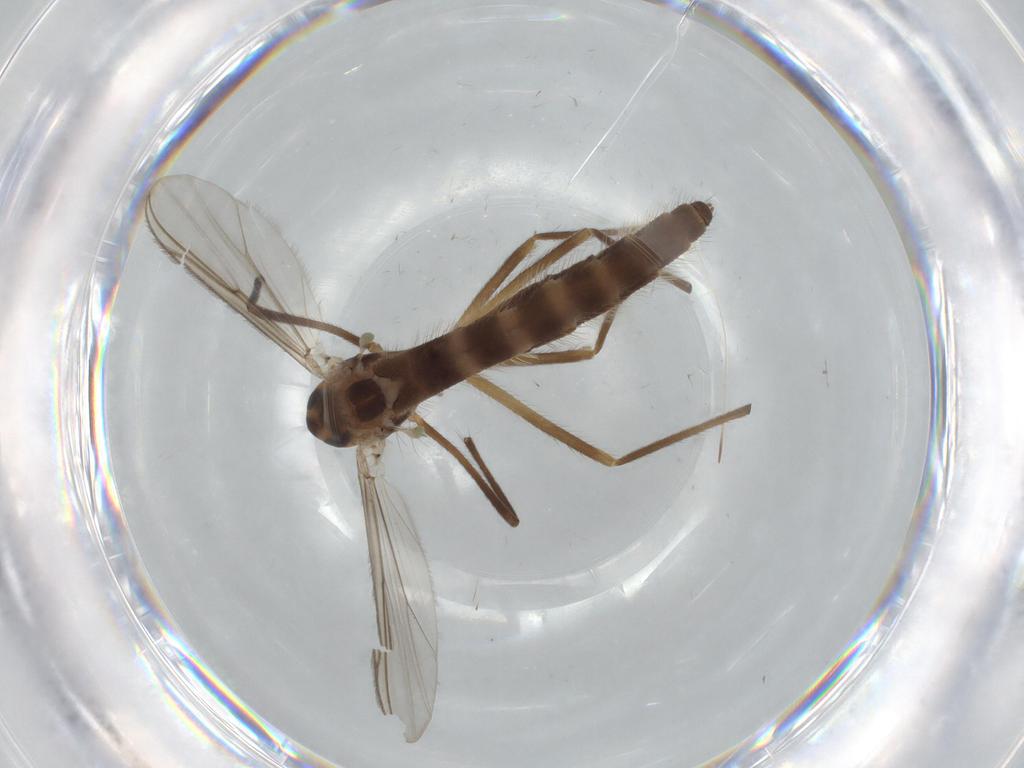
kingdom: Animalia
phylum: Arthropoda
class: Insecta
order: Diptera
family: Chironomidae
